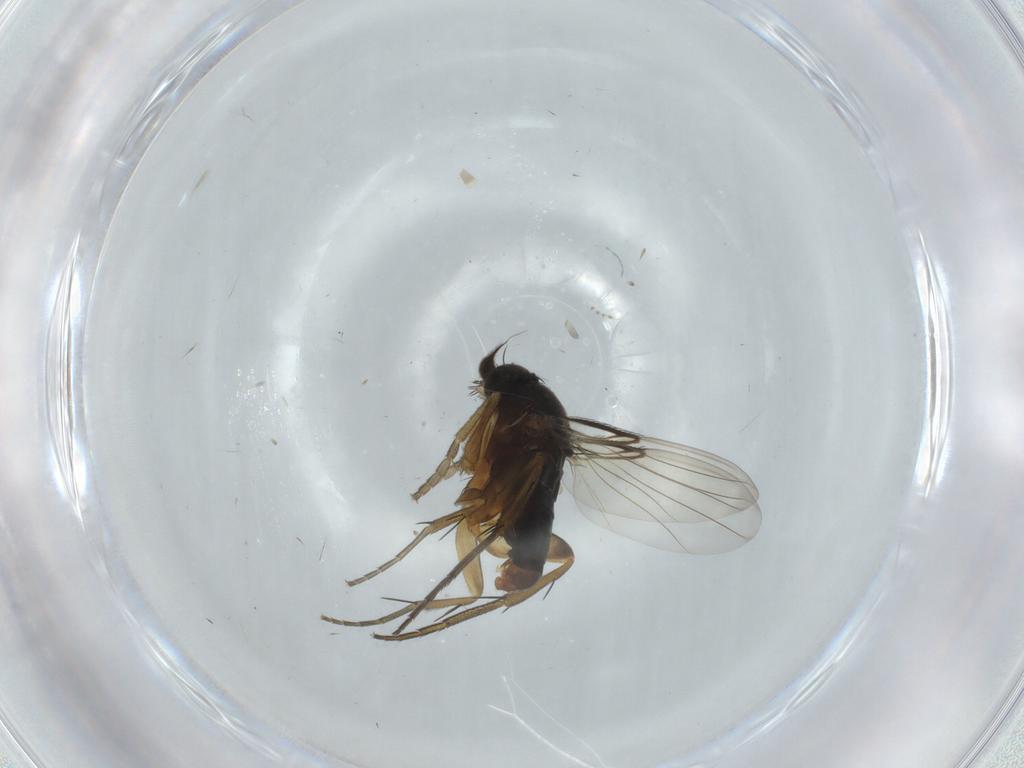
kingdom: Animalia
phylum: Arthropoda
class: Insecta
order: Diptera
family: Phoridae
